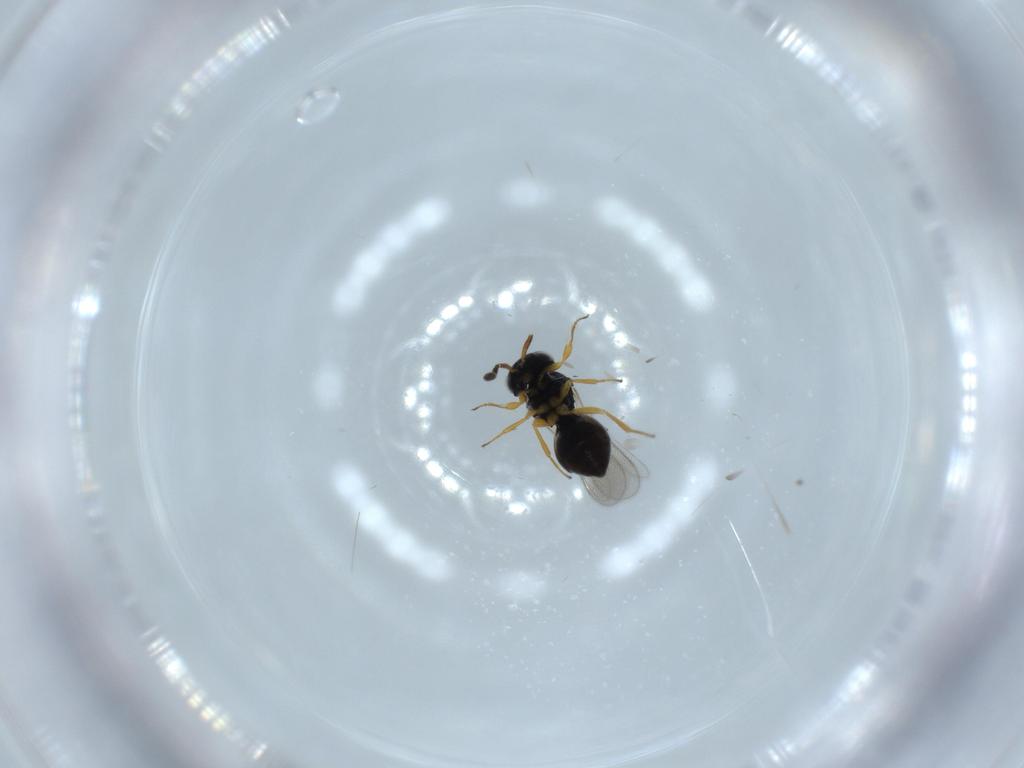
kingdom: Animalia
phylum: Arthropoda
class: Insecta
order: Hymenoptera
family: Scelionidae
